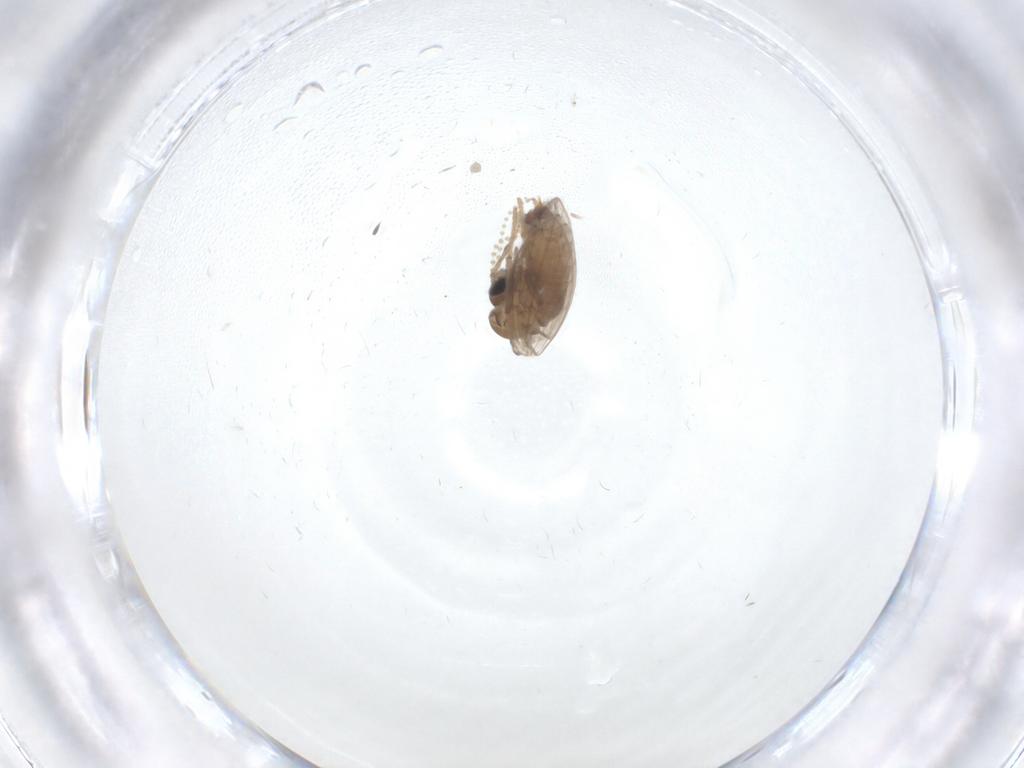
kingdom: Animalia
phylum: Arthropoda
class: Insecta
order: Diptera
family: Psychodidae
